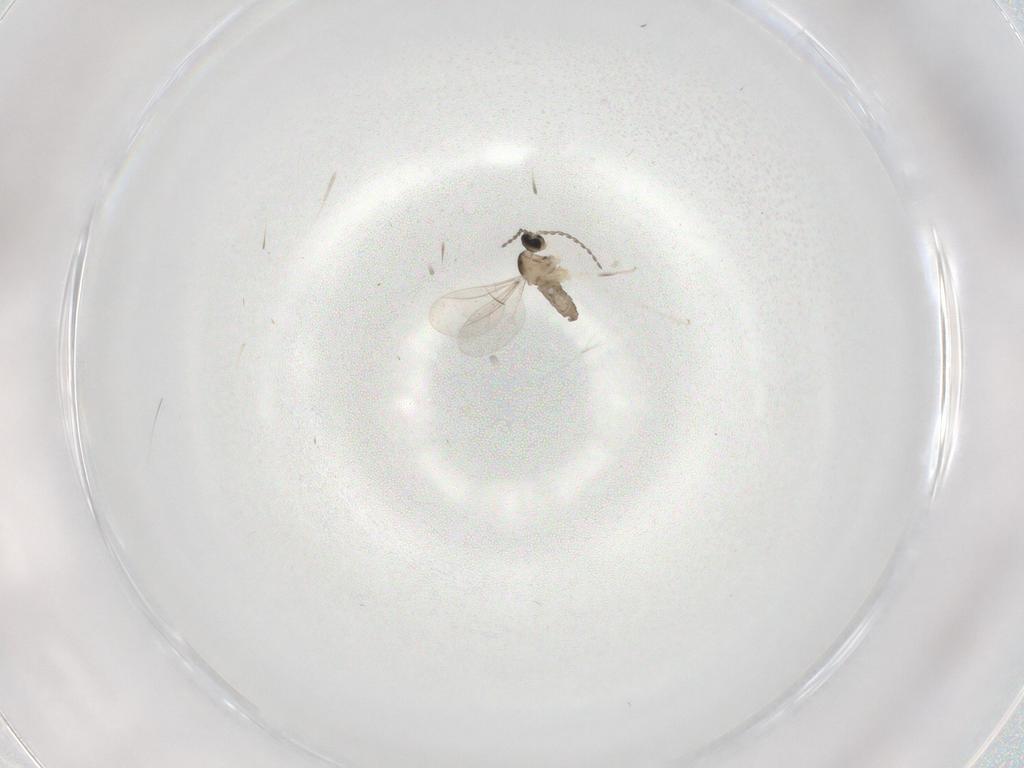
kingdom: Animalia
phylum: Arthropoda
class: Insecta
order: Diptera
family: Cecidomyiidae
